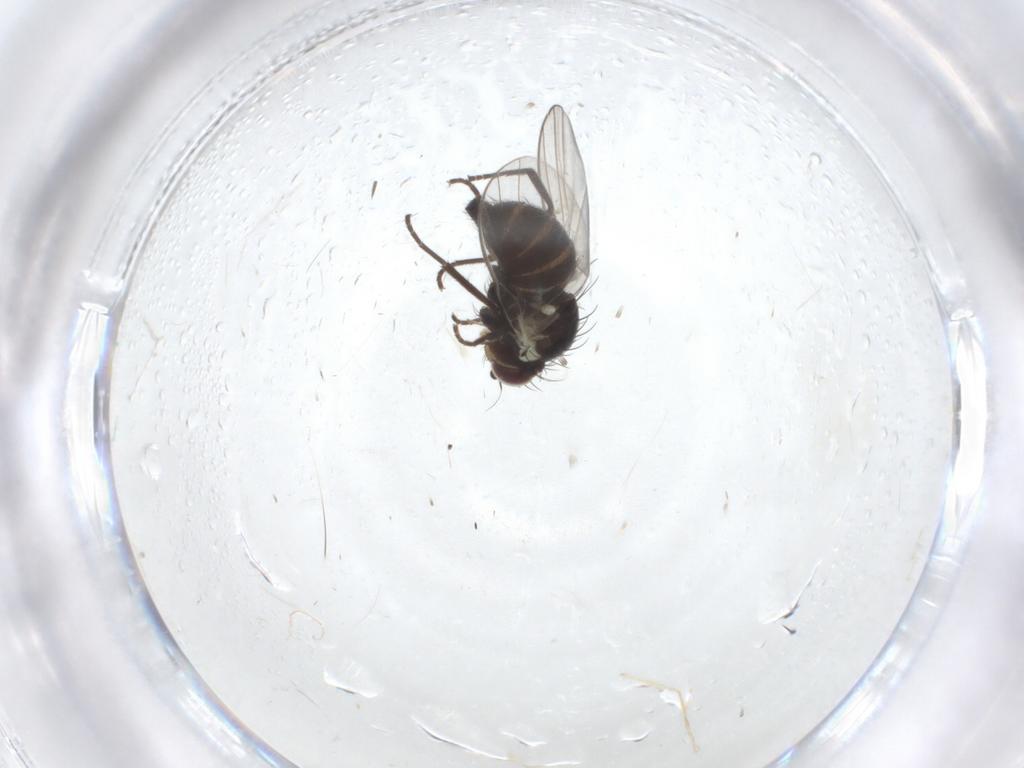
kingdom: Animalia
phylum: Arthropoda
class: Insecta
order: Diptera
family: Agromyzidae
